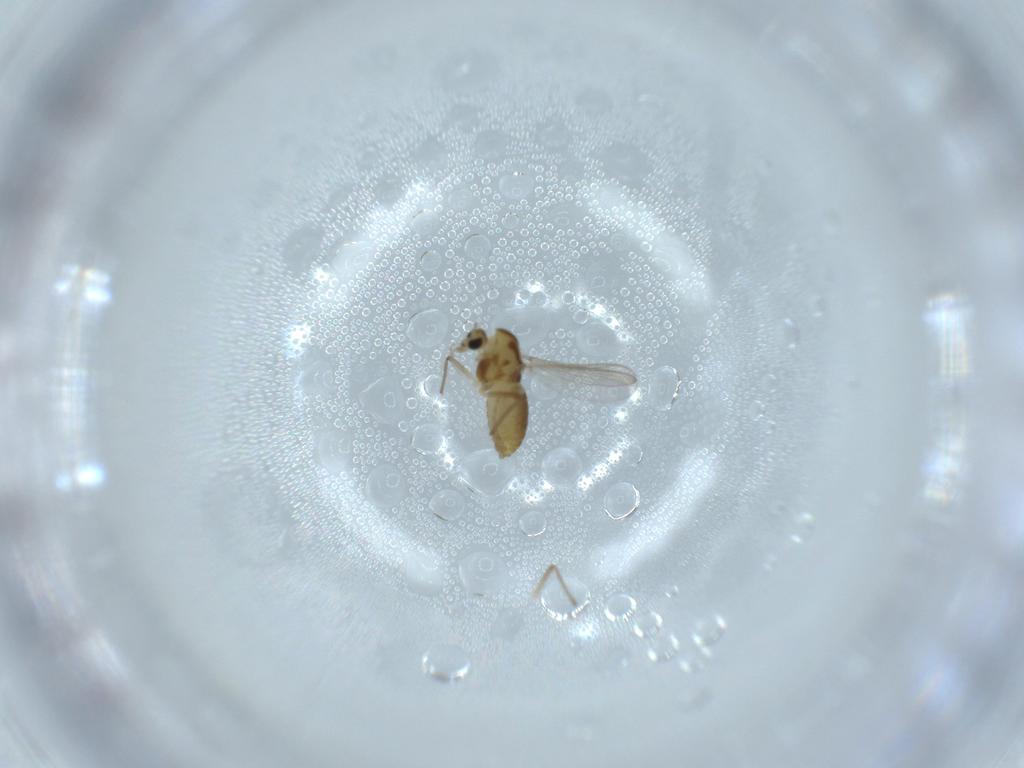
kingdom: Animalia
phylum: Arthropoda
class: Insecta
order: Diptera
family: Chironomidae
